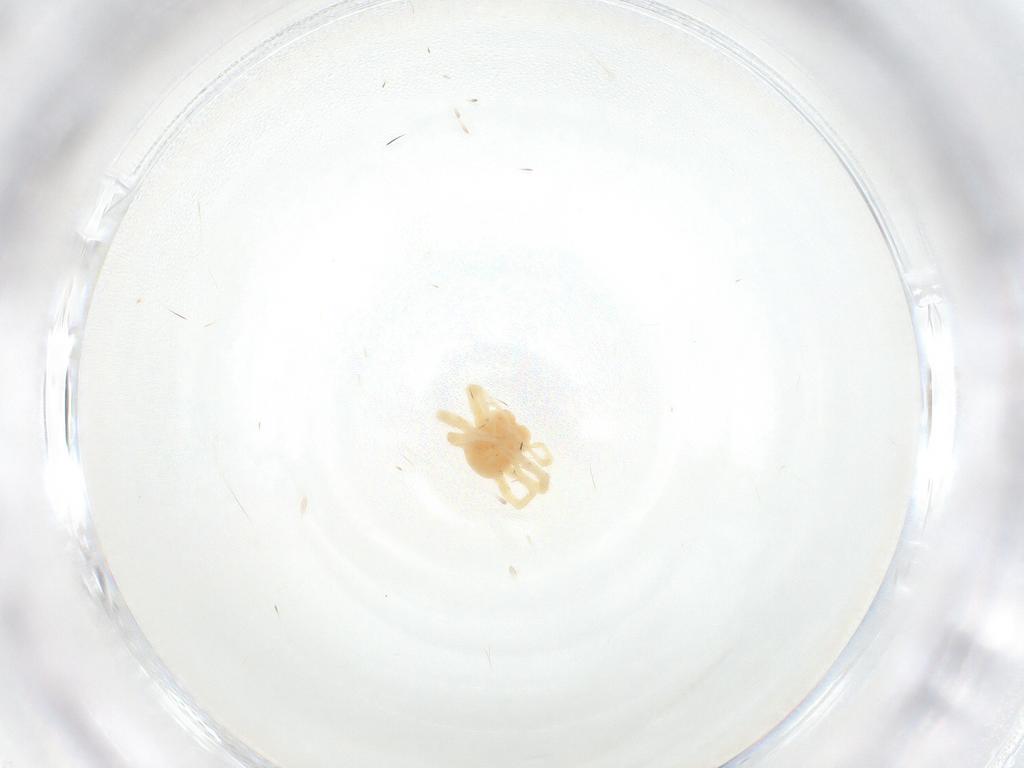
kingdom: Animalia
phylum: Arthropoda
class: Arachnida
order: Trombidiformes
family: Anystidae
